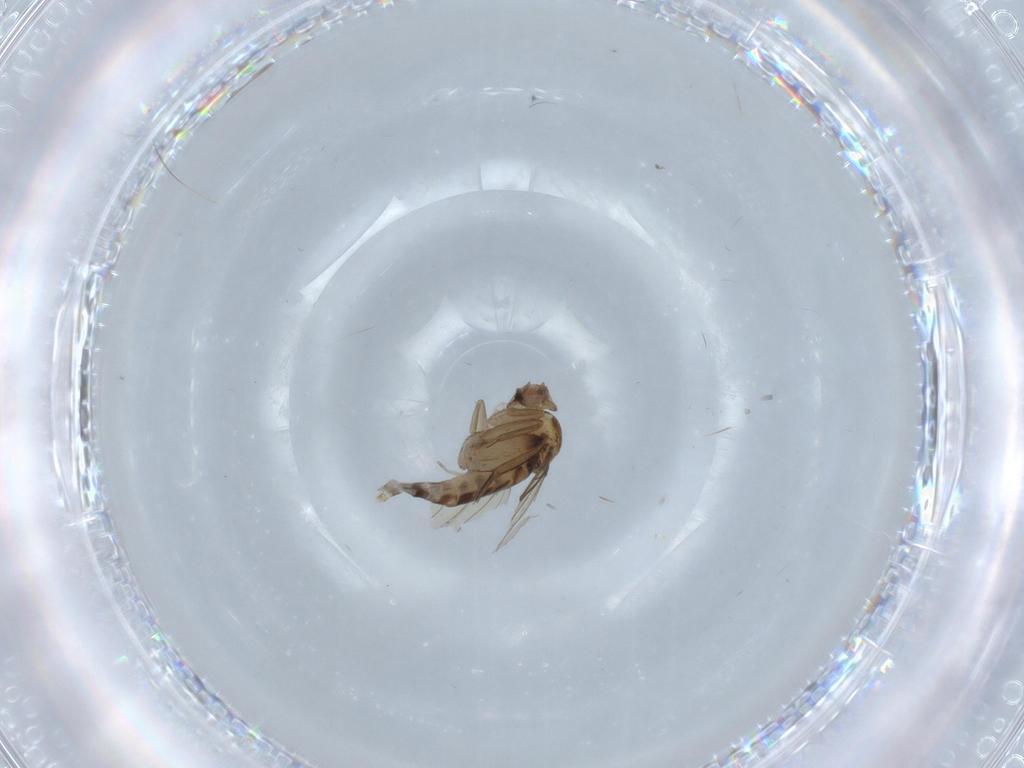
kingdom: Animalia
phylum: Arthropoda
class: Insecta
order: Diptera
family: Phoridae
